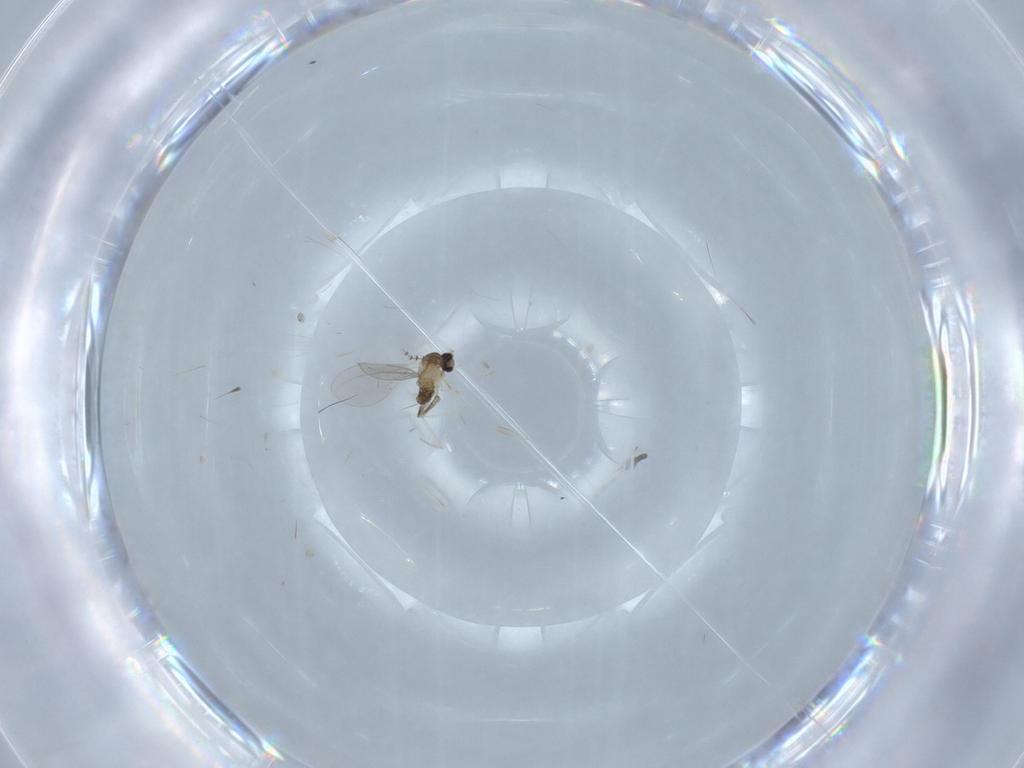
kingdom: Animalia
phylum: Arthropoda
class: Insecta
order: Diptera
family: Cecidomyiidae
